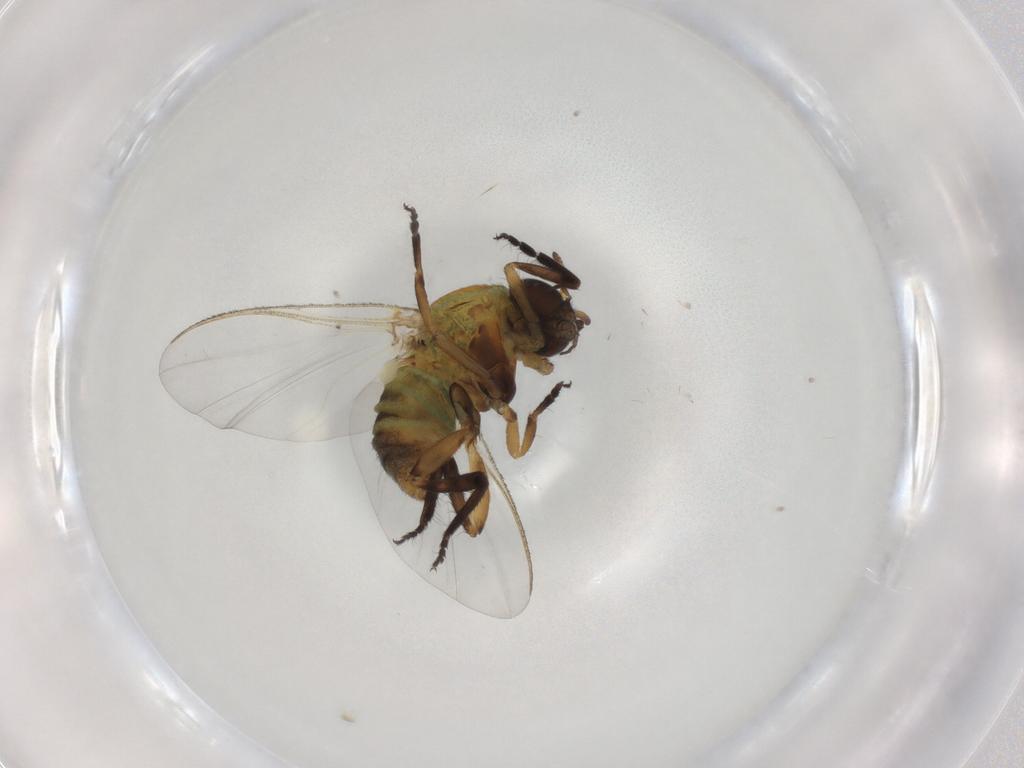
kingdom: Animalia
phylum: Arthropoda
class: Insecta
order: Diptera
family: Simuliidae
